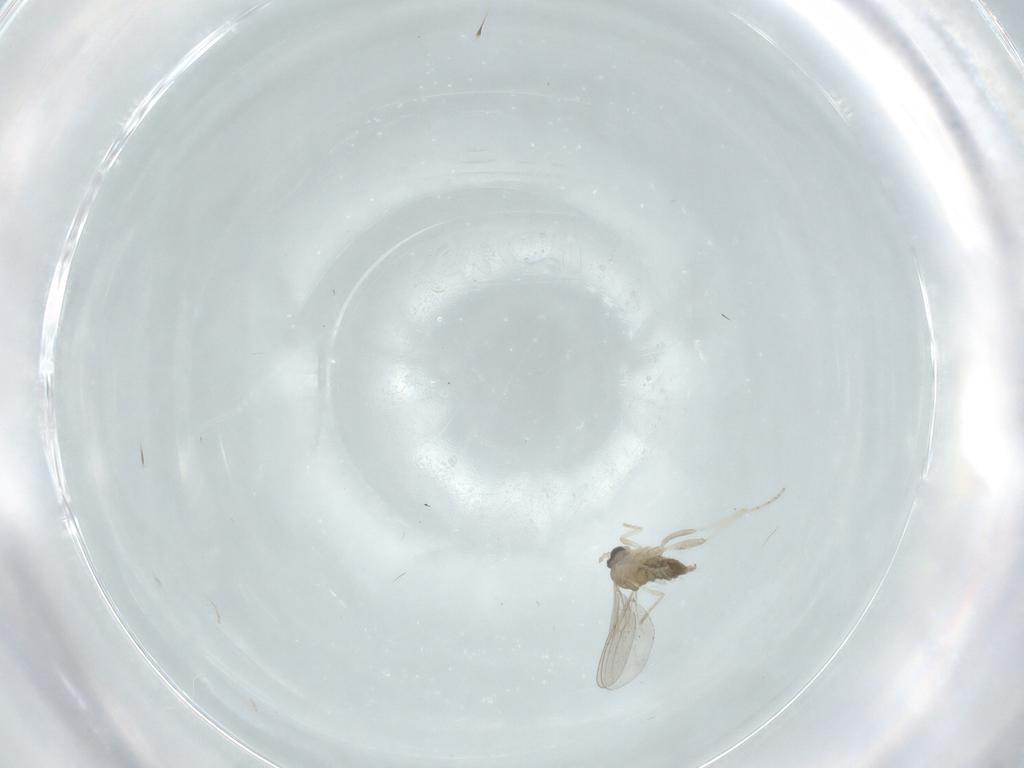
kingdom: Animalia
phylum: Arthropoda
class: Insecta
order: Diptera
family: Cecidomyiidae
